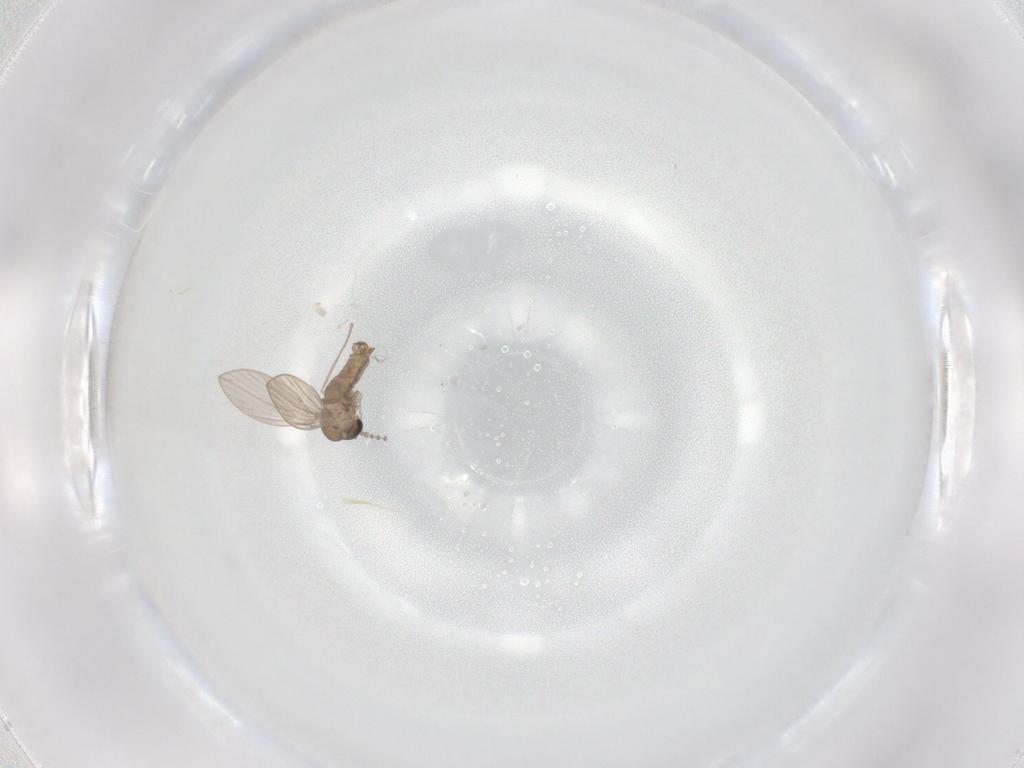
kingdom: Animalia
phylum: Arthropoda
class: Insecta
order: Diptera
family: Psychodidae
